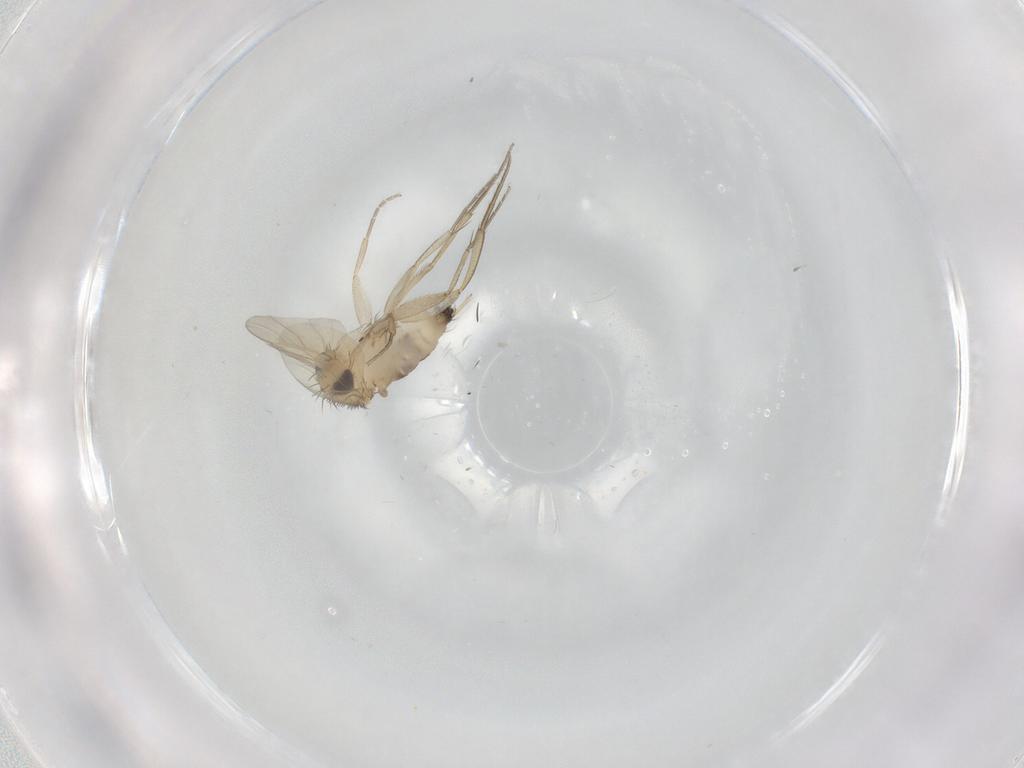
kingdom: Animalia
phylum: Arthropoda
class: Insecta
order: Diptera
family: Phoridae
